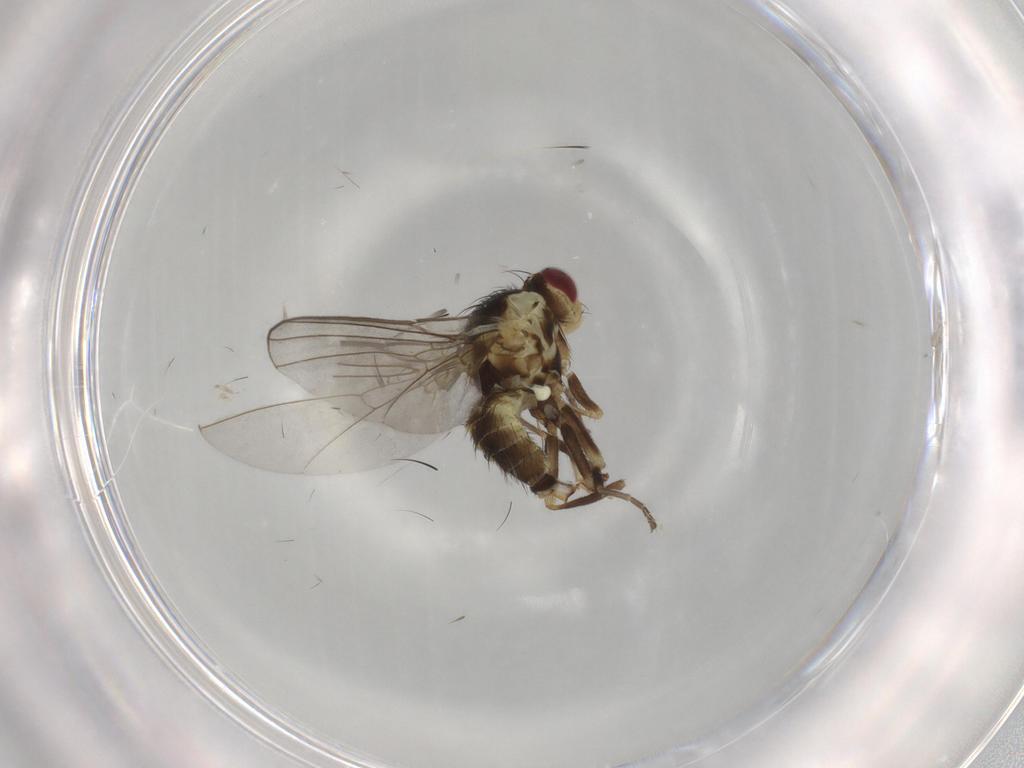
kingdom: Animalia
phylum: Arthropoda
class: Insecta
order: Diptera
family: Agromyzidae
